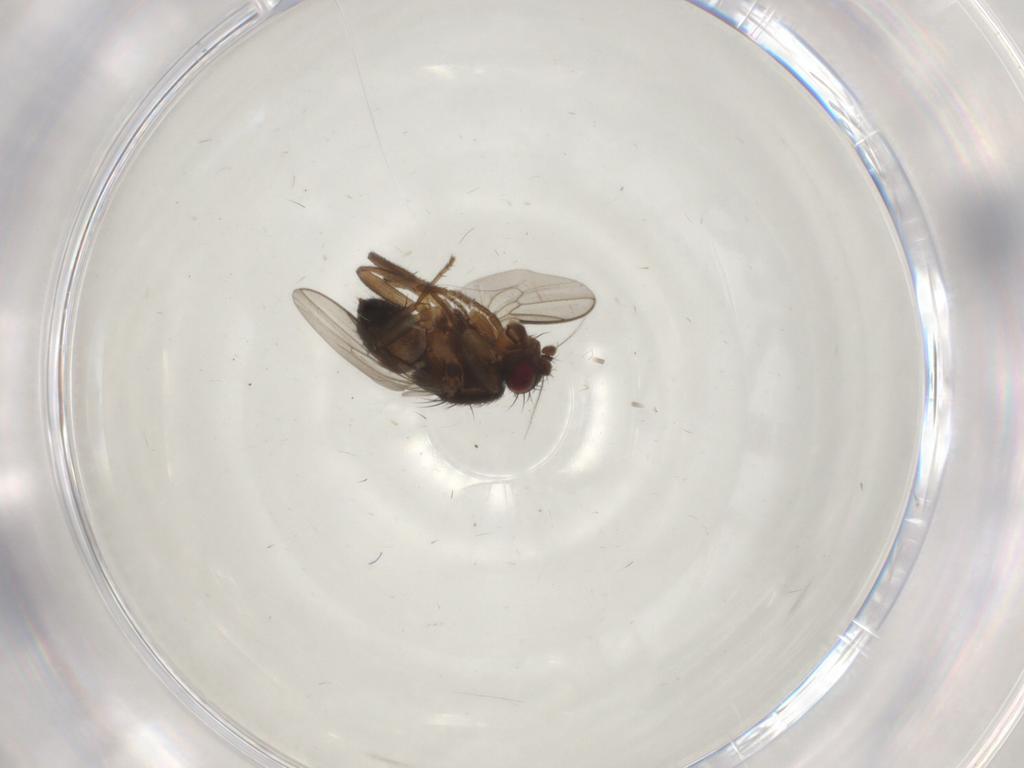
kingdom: Animalia
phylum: Arthropoda
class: Insecta
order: Diptera
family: Sphaeroceridae
